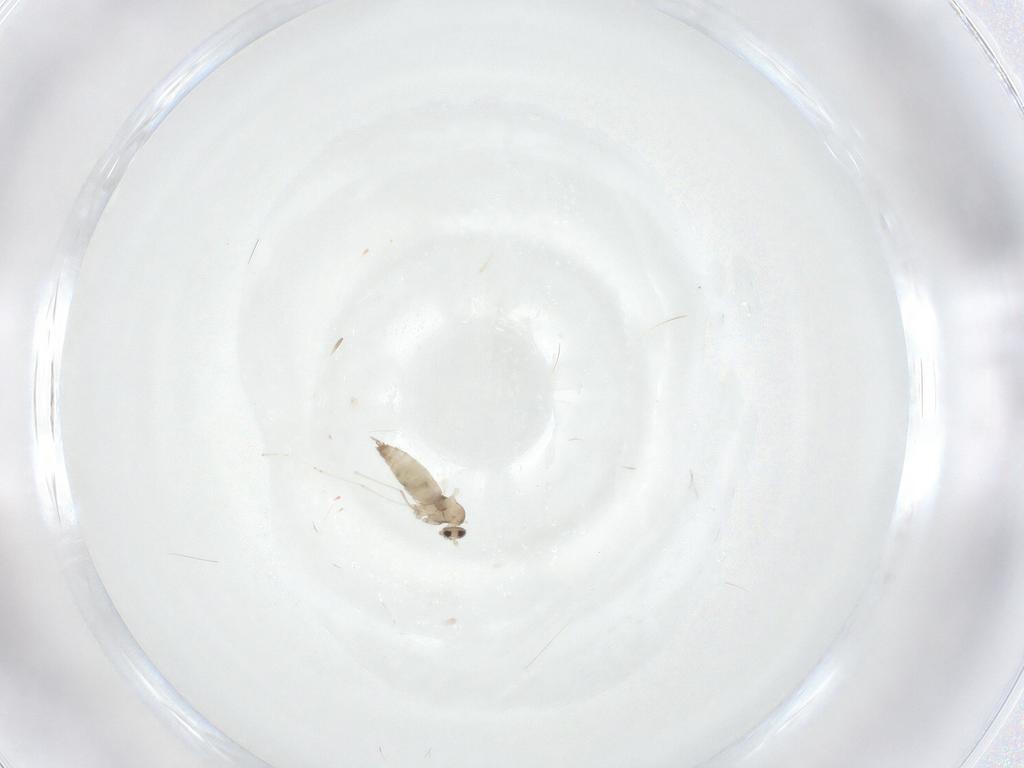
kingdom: Animalia
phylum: Arthropoda
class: Insecta
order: Diptera
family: Cecidomyiidae
